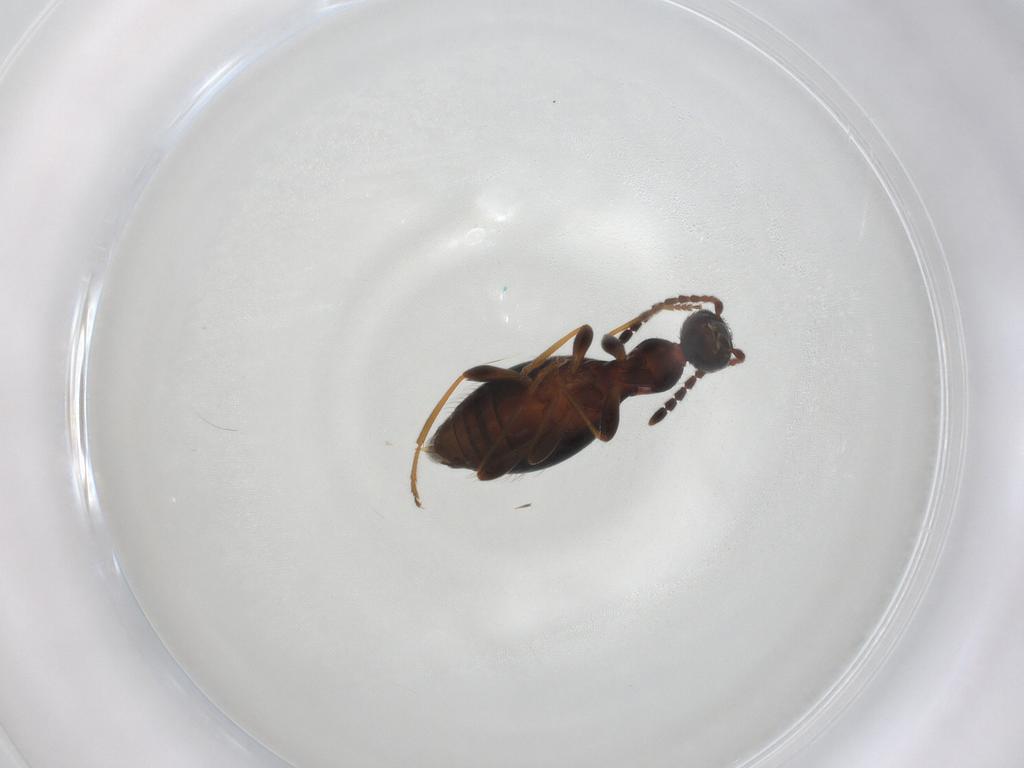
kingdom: Animalia
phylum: Arthropoda
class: Insecta
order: Coleoptera
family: Anthicidae
